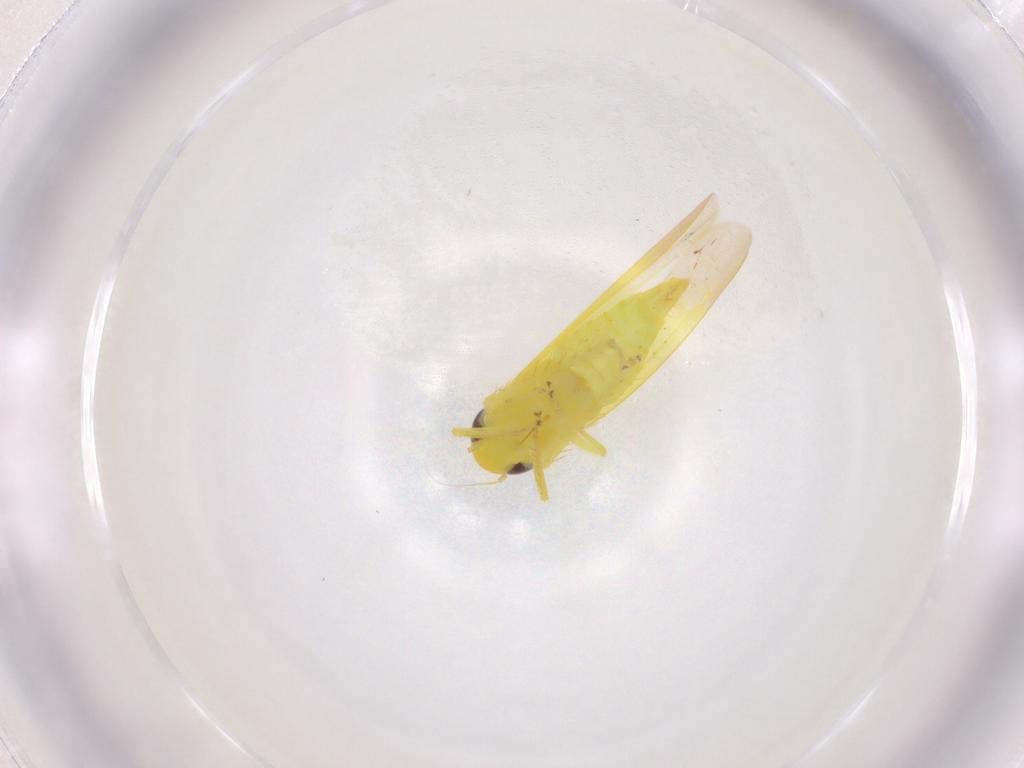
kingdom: Animalia
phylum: Arthropoda
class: Insecta
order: Hemiptera
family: Cicadellidae
